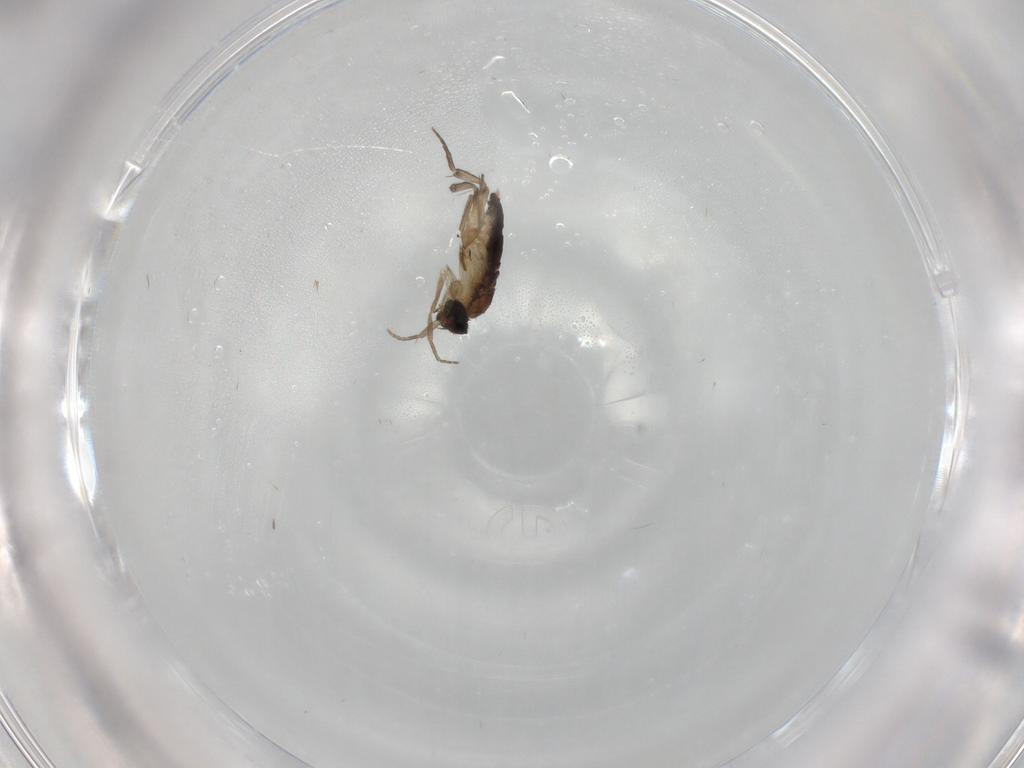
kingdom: Animalia
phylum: Arthropoda
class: Insecta
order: Diptera
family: Phoridae
